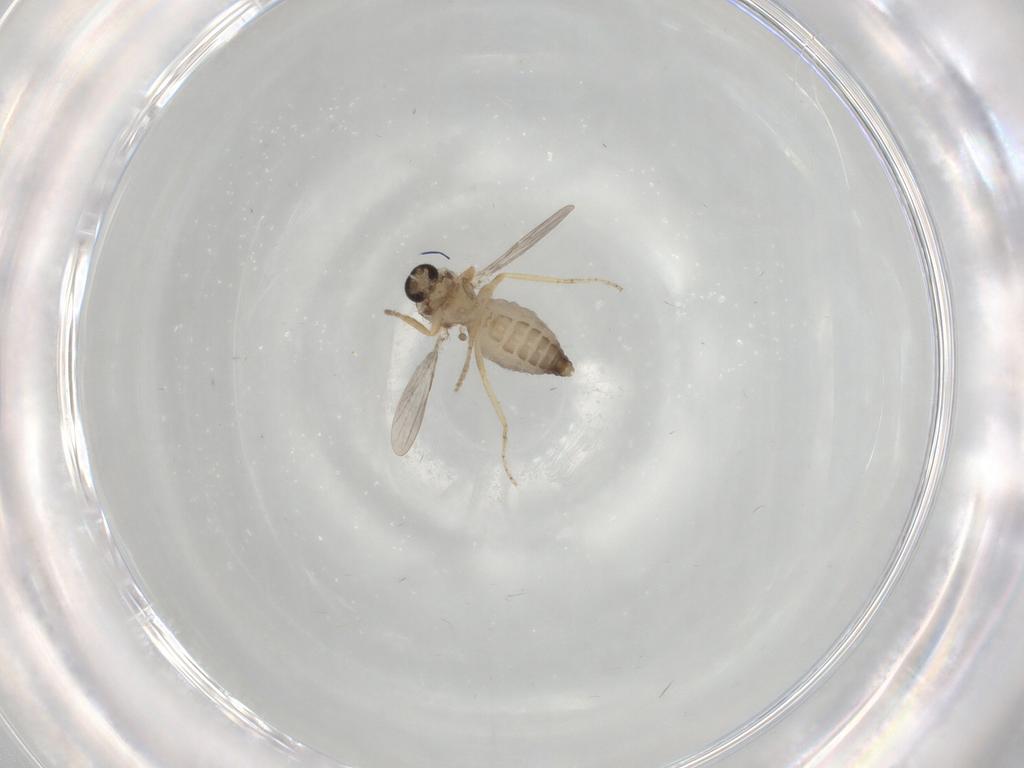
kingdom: Animalia
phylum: Arthropoda
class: Insecta
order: Diptera
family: Ceratopogonidae
